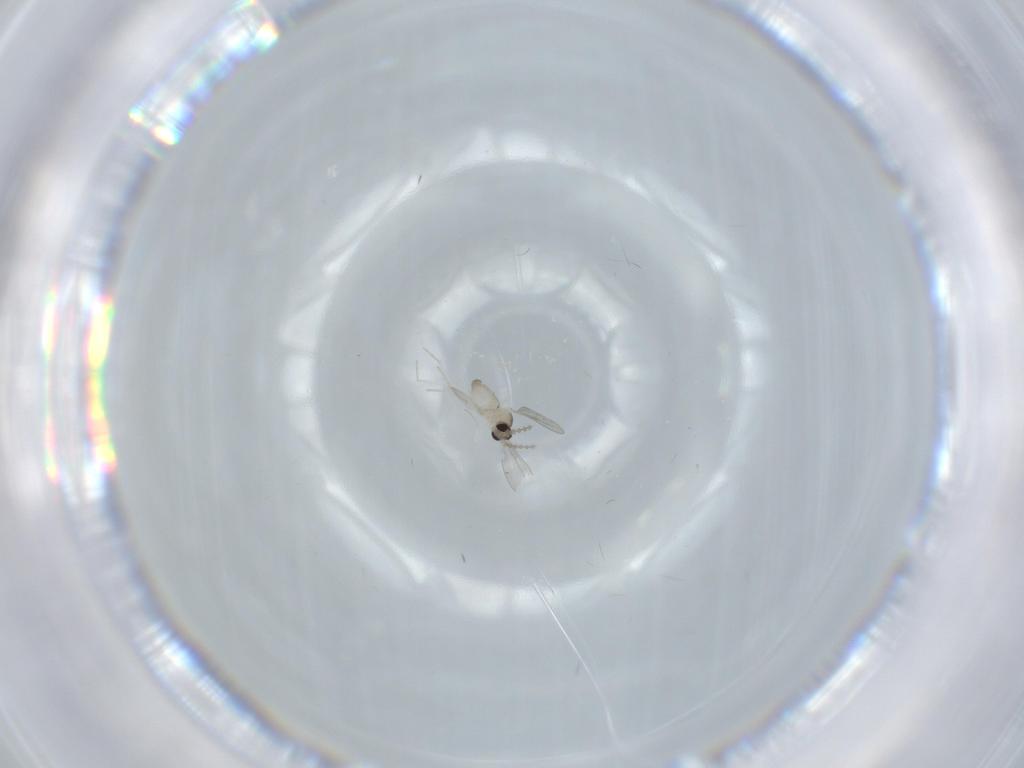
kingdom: Animalia
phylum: Arthropoda
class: Insecta
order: Diptera
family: Cecidomyiidae
